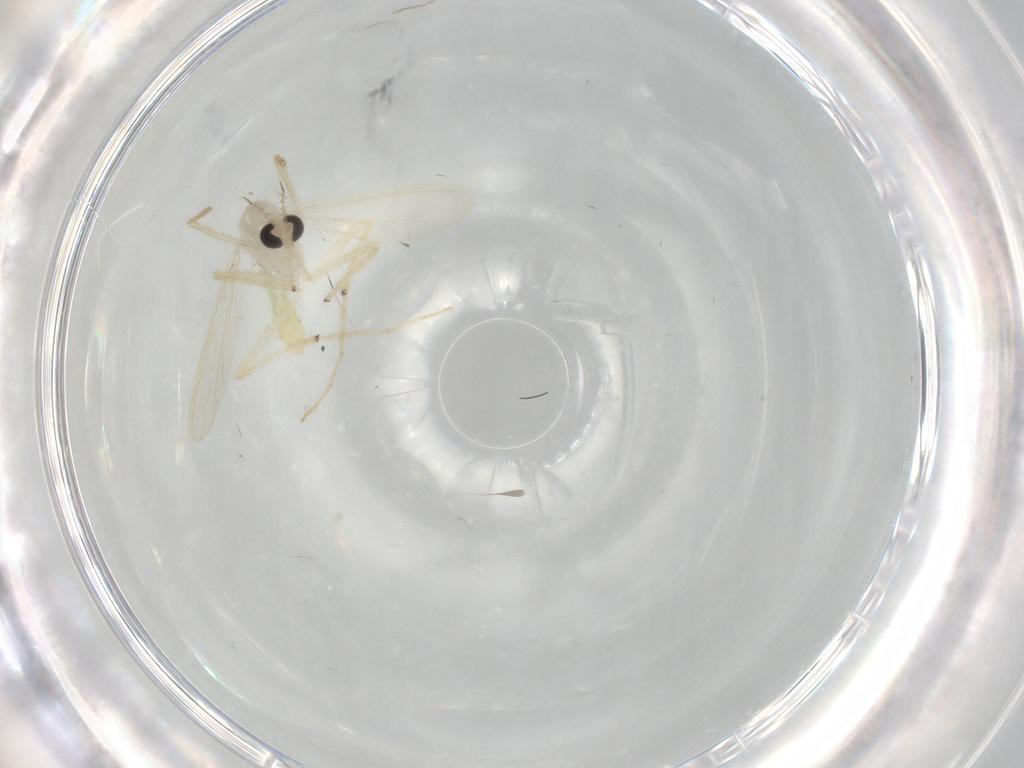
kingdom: Animalia
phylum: Arthropoda
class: Insecta
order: Diptera
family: Chironomidae
